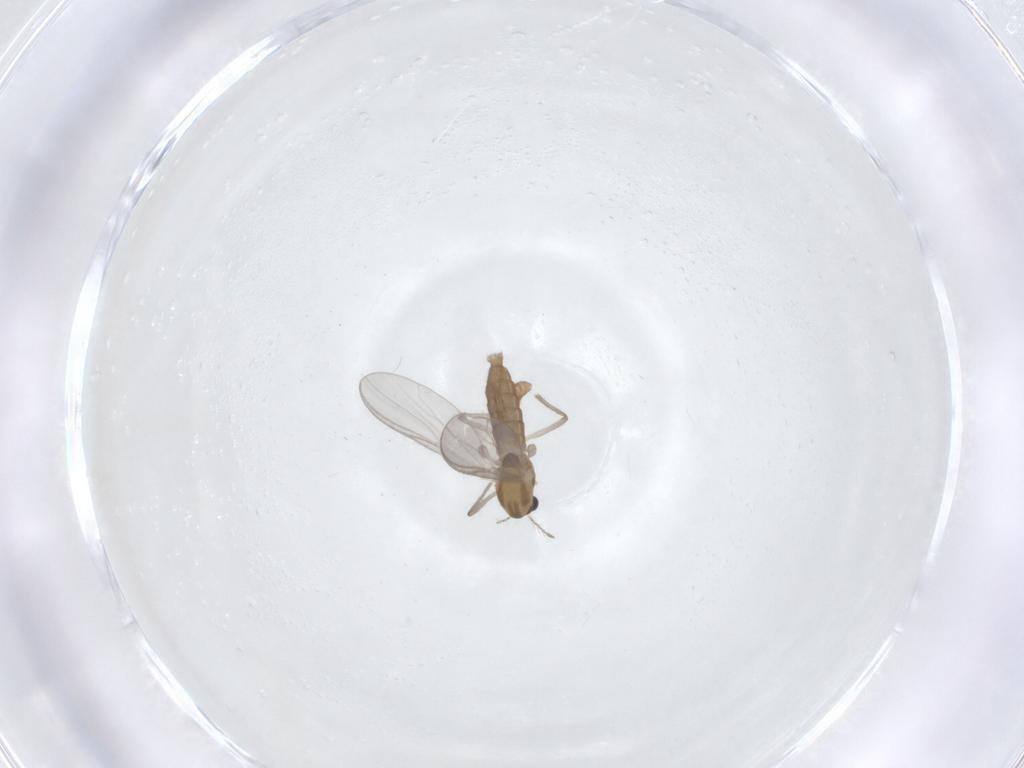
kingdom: Animalia
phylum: Arthropoda
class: Insecta
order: Diptera
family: Chironomidae
